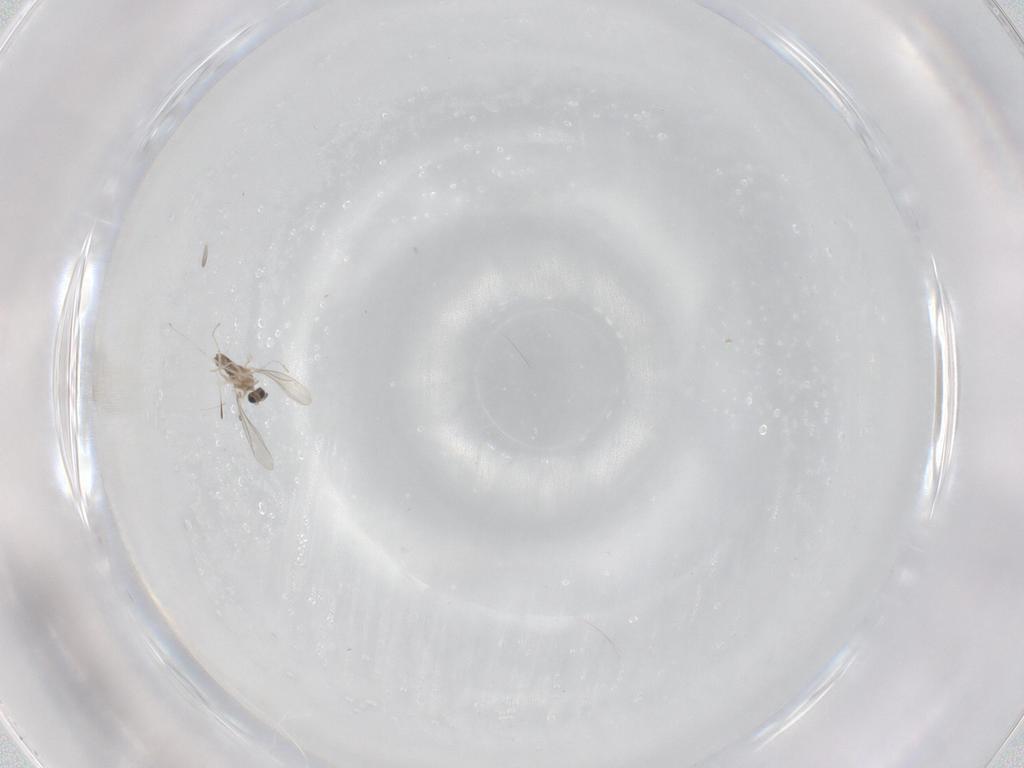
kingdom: Animalia
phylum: Arthropoda
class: Insecta
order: Diptera
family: Cecidomyiidae
